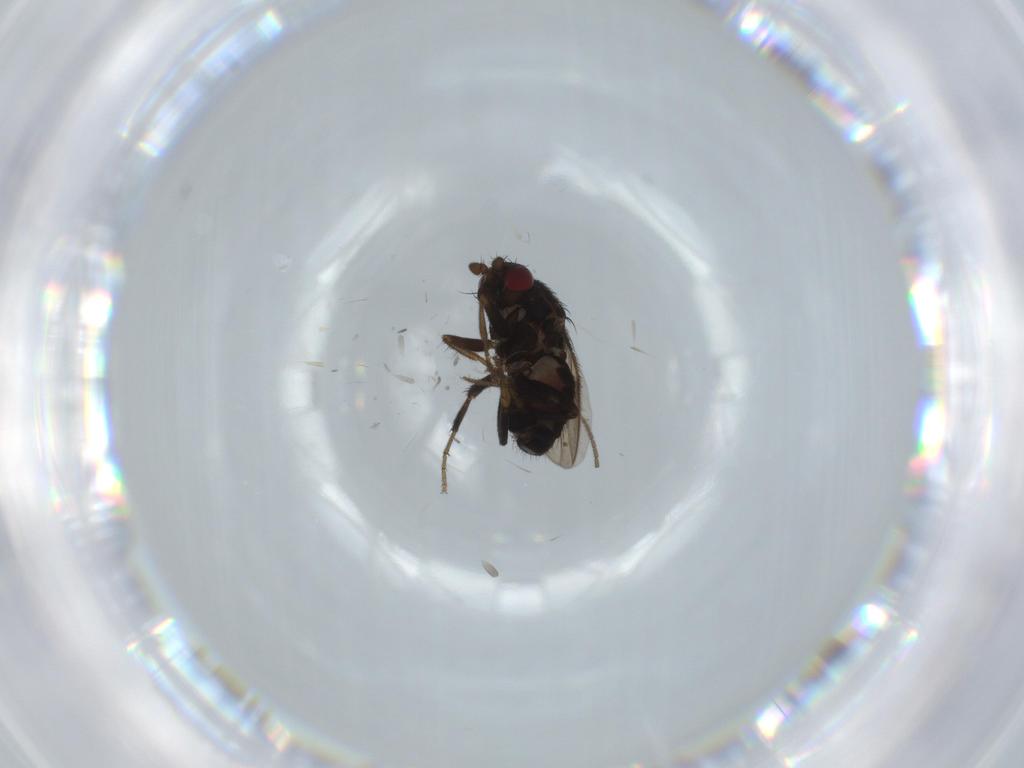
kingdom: Animalia
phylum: Arthropoda
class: Insecta
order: Diptera
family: Sphaeroceridae
